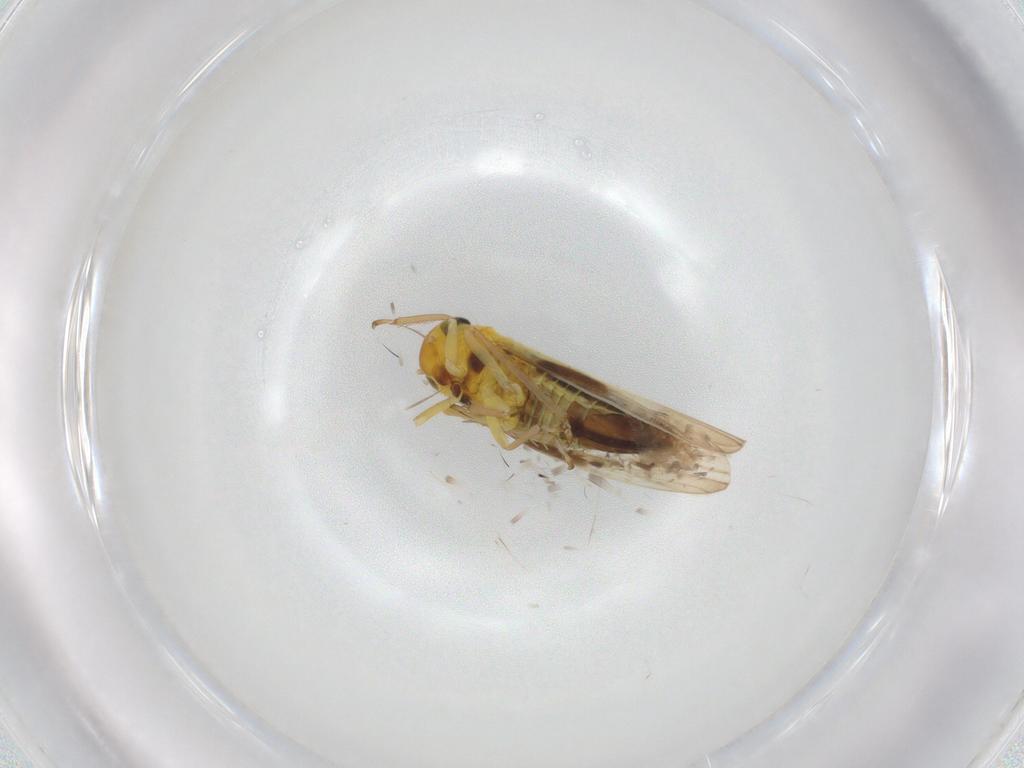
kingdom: Animalia
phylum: Arthropoda
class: Insecta
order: Hemiptera
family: Cicadellidae
